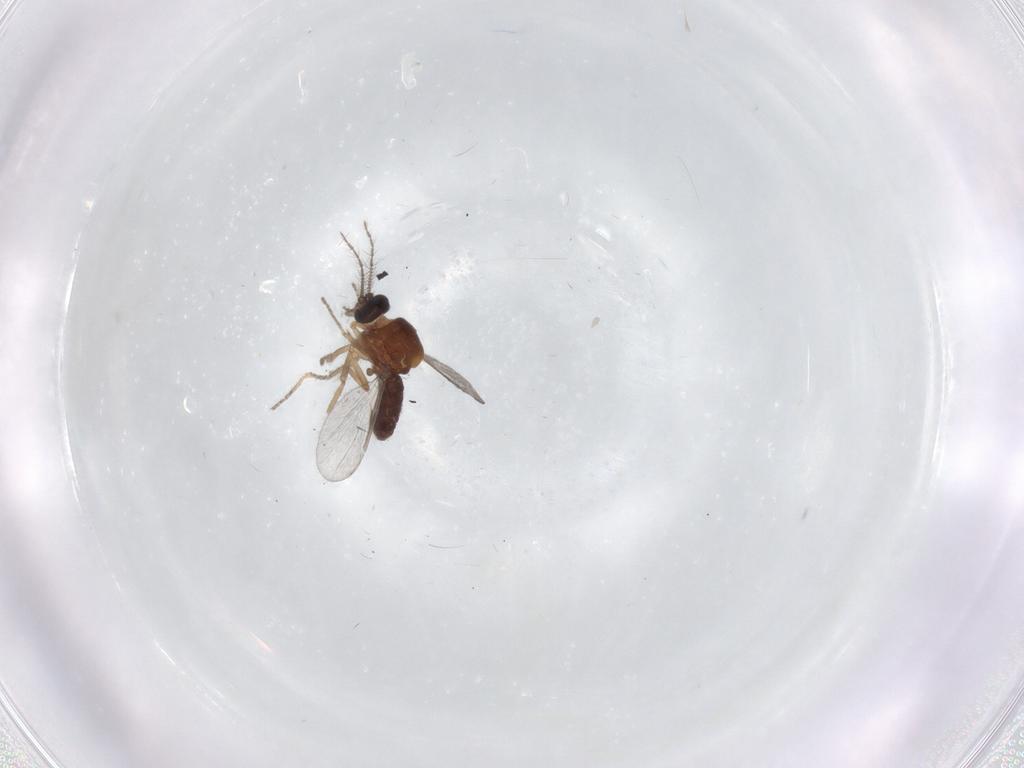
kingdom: Animalia
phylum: Arthropoda
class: Insecta
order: Diptera
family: Ceratopogonidae
